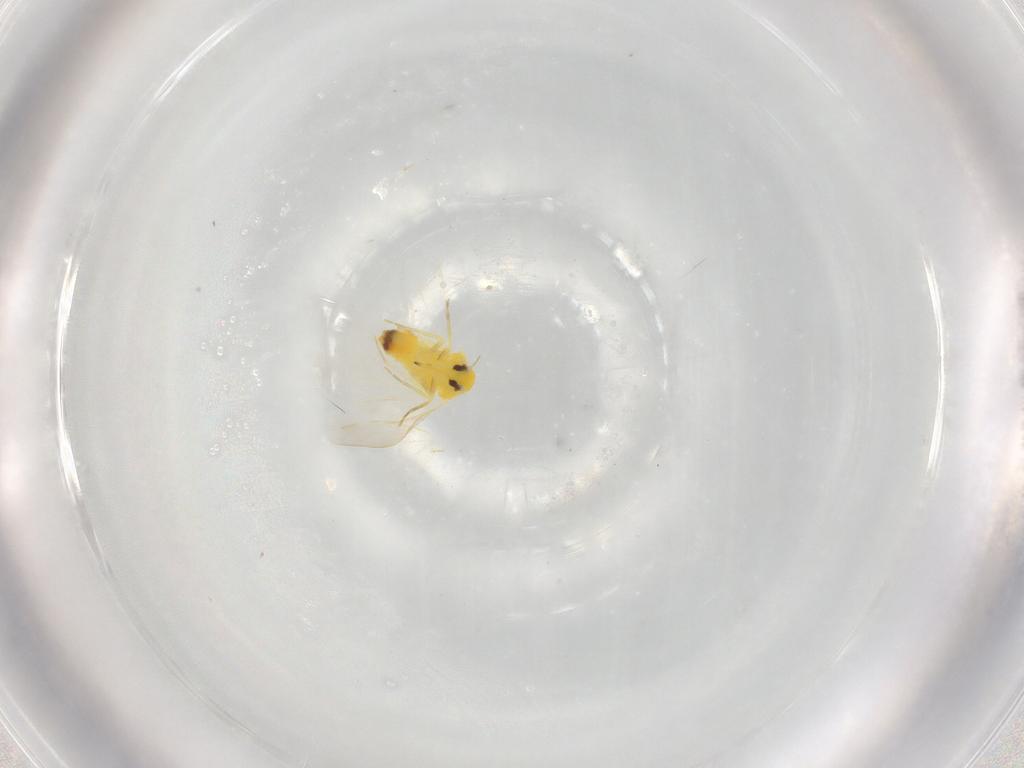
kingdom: Animalia
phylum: Arthropoda
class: Insecta
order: Hemiptera
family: Aleyrodidae
